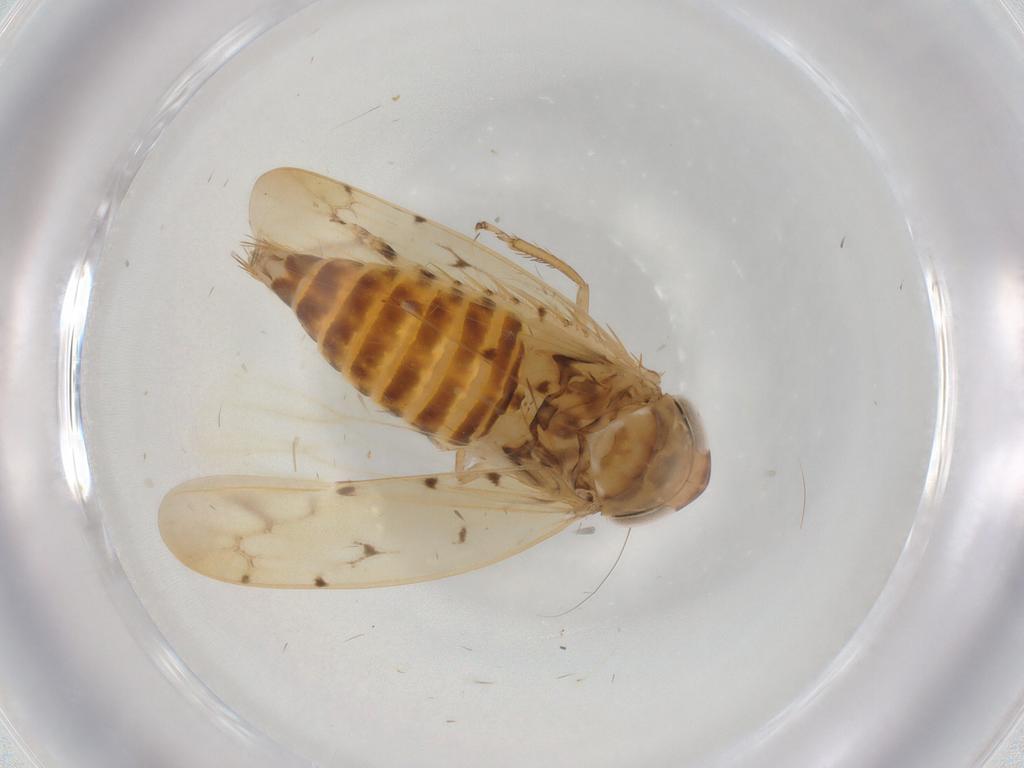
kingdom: Animalia
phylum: Arthropoda
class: Insecta
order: Hemiptera
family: Cicadellidae
